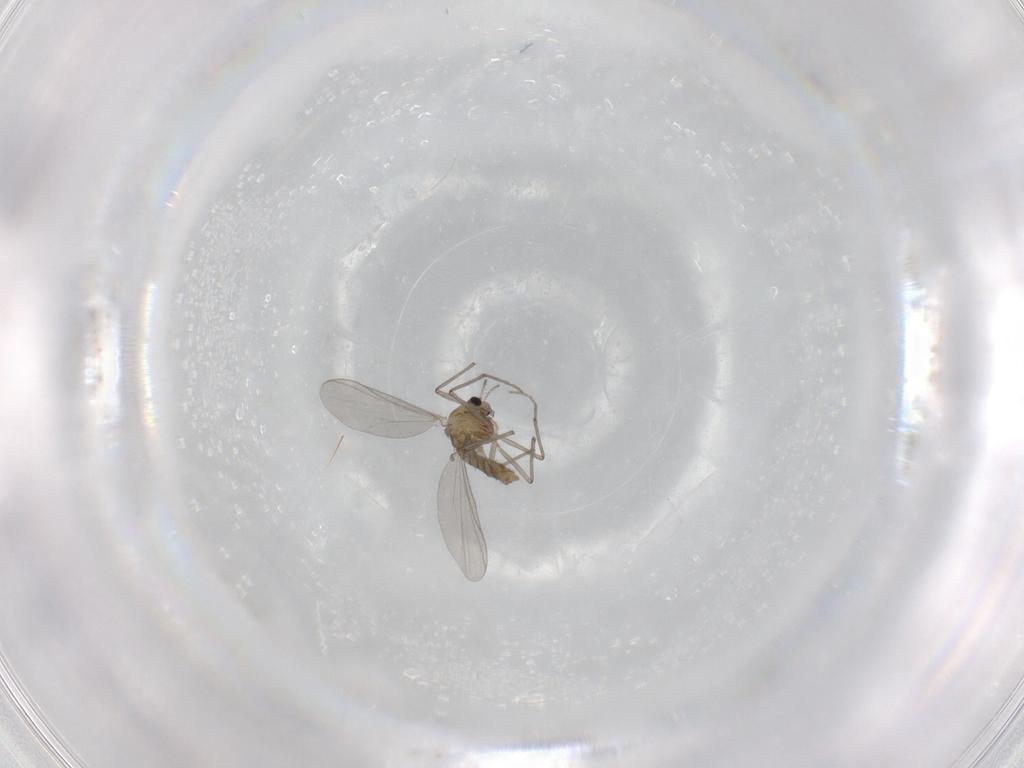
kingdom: Animalia
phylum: Arthropoda
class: Insecta
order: Diptera
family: Chironomidae
